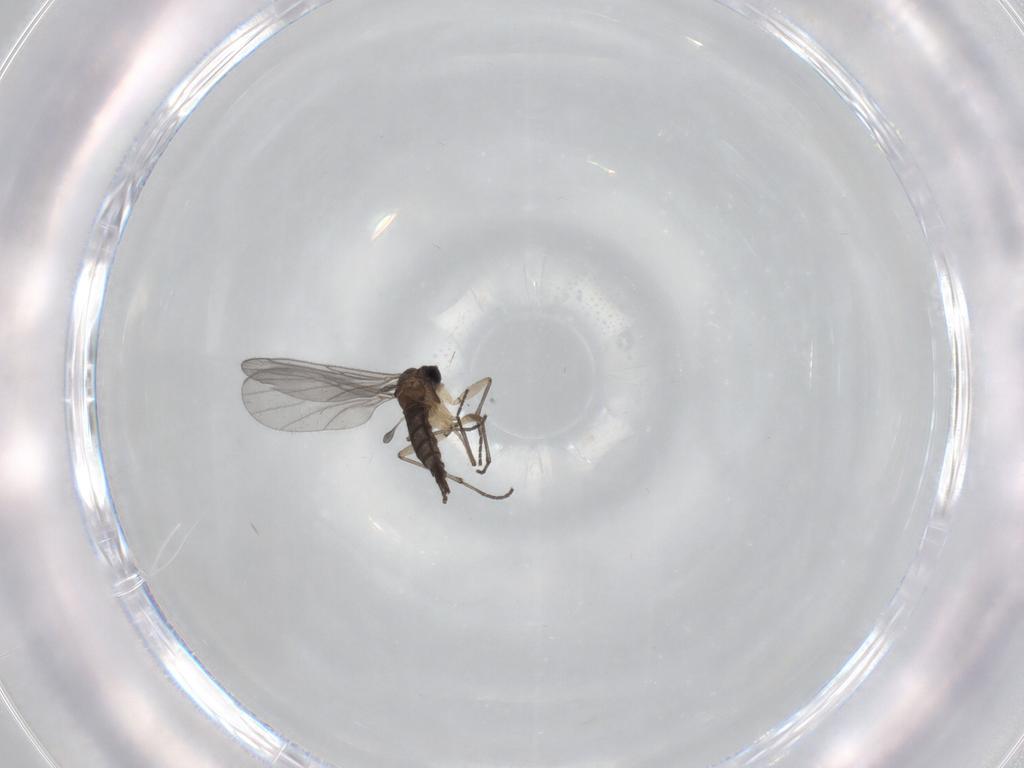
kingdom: Animalia
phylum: Arthropoda
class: Insecta
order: Diptera
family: Sciaridae
